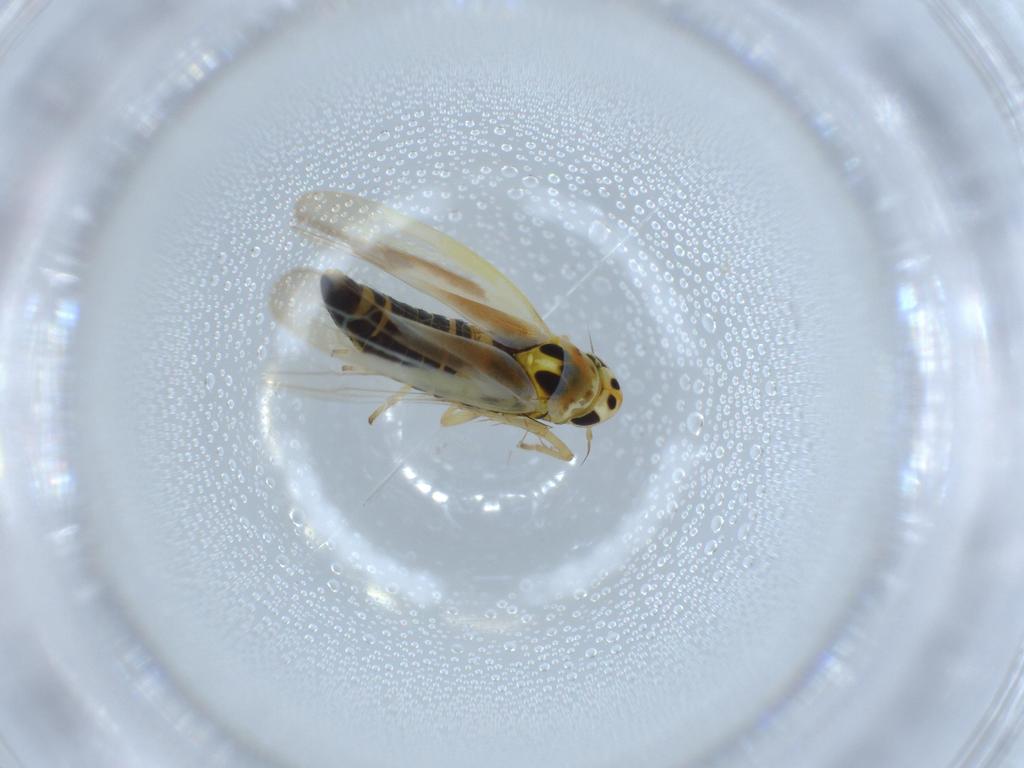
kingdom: Animalia
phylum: Arthropoda
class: Insecta
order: Hemiptera
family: Cicadellidae
